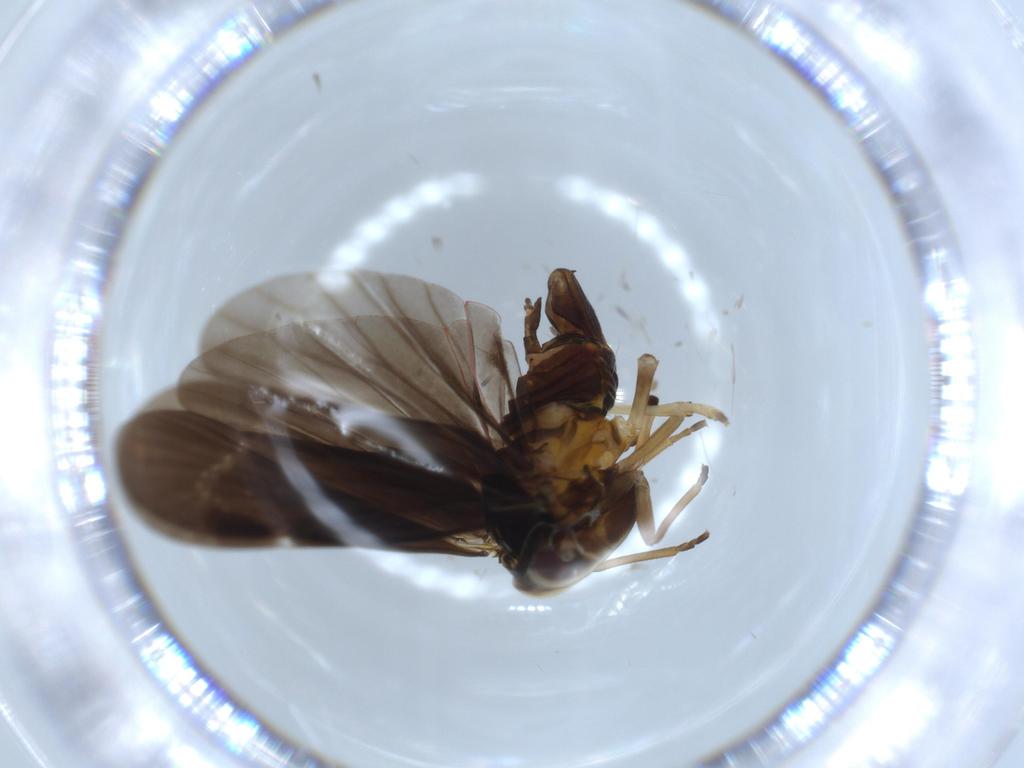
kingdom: Animalia
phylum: Arthropoda
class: Insecta
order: Hemiptera
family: Derbidae
